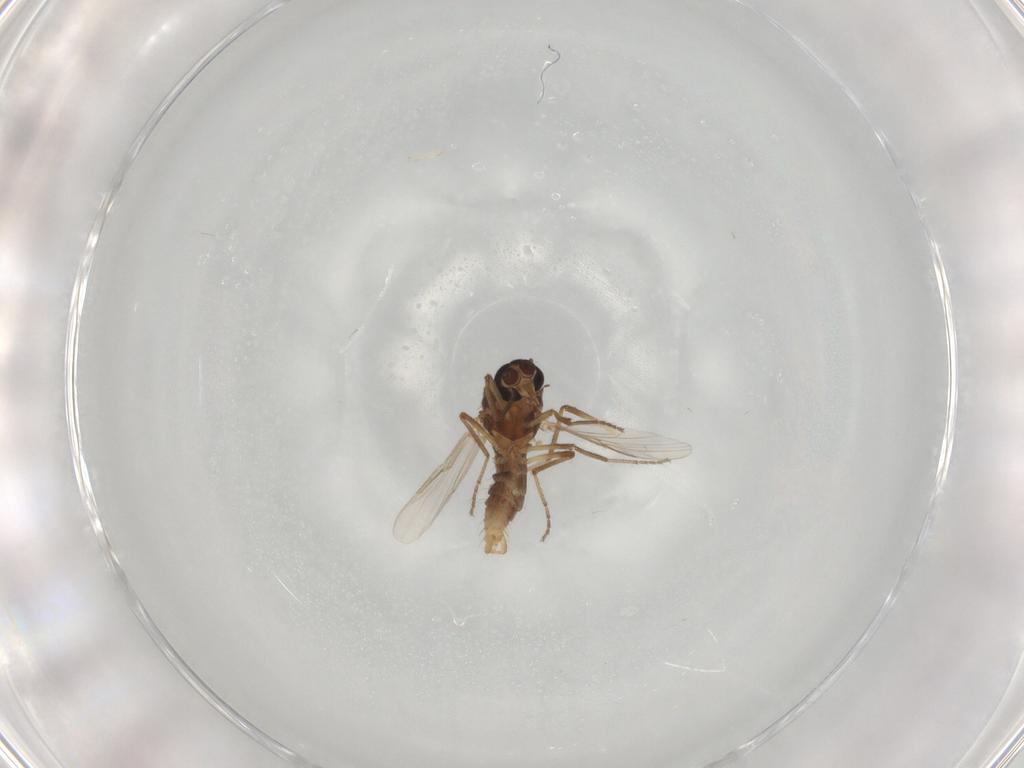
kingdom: Animalia
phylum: Arthropoda
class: Insecta
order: Diptera
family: Ceratopogonidae
